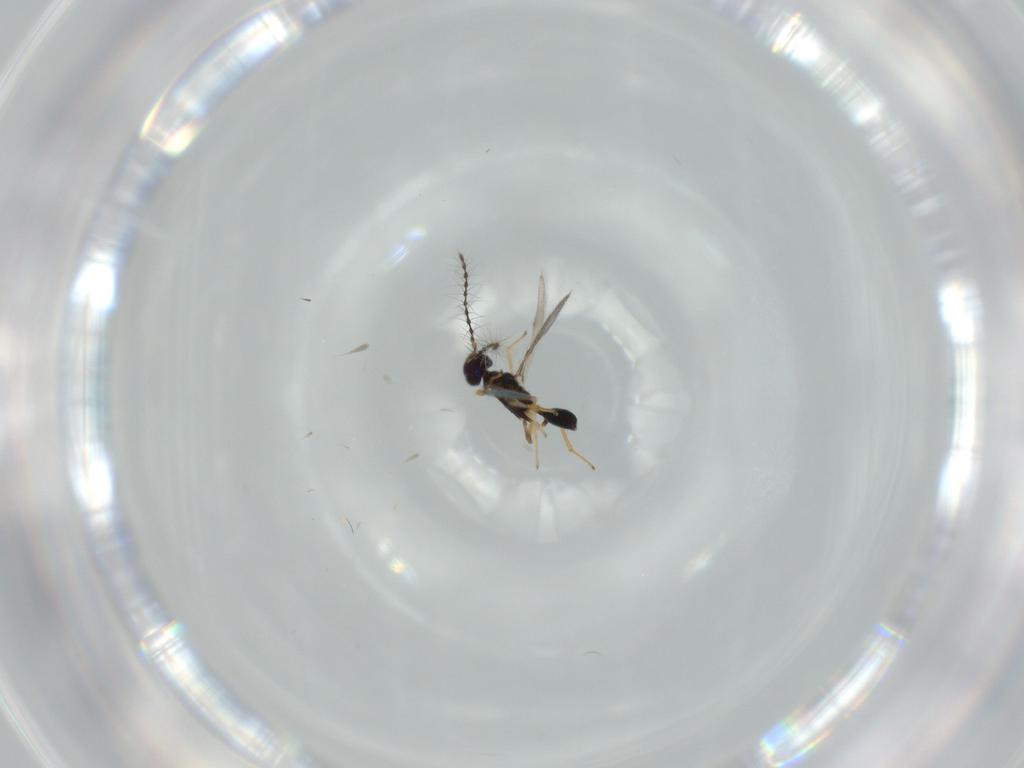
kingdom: Animalia
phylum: Arthropoda
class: Insecta
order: Hymenoptera
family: Diparidae
